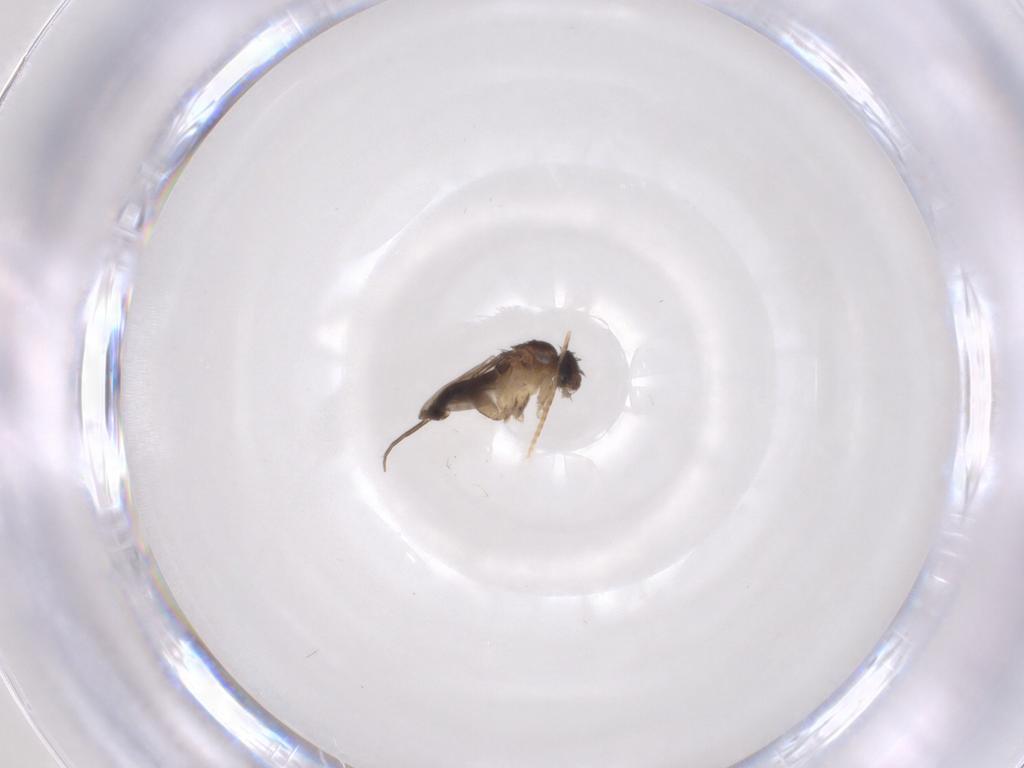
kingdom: Animalia
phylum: Arthropoda
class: Insecta
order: Diptera
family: Phoridae
